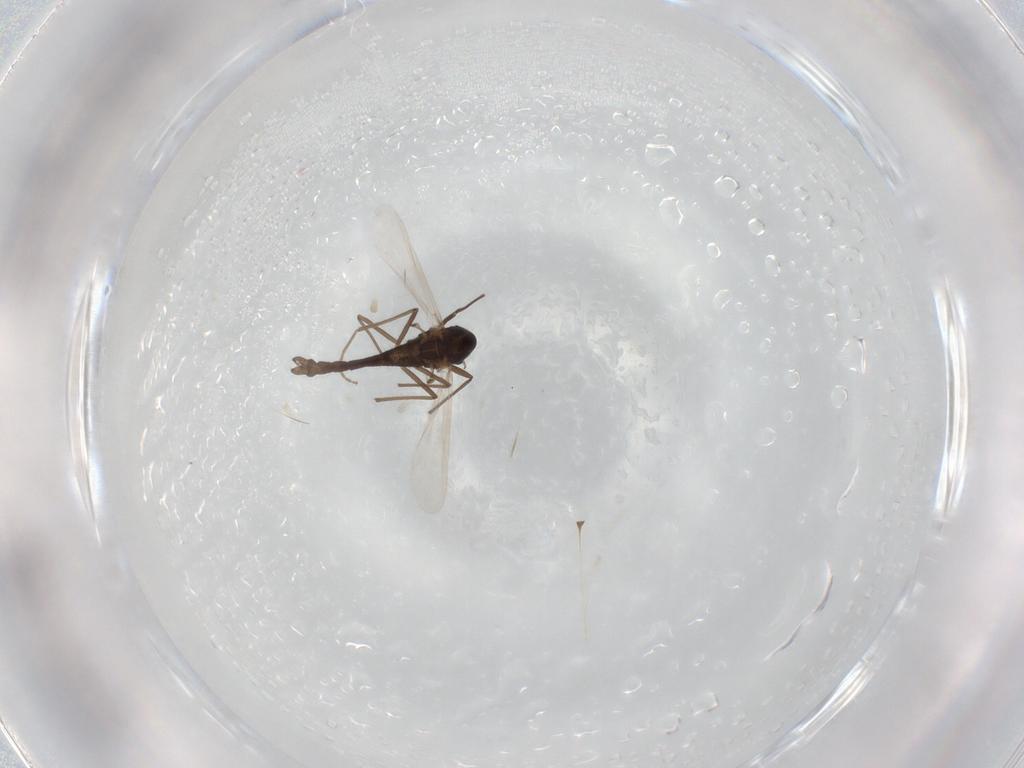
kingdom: Animalia
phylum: Arthropoda
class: Insecta
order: Diptera
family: Chironomidae
